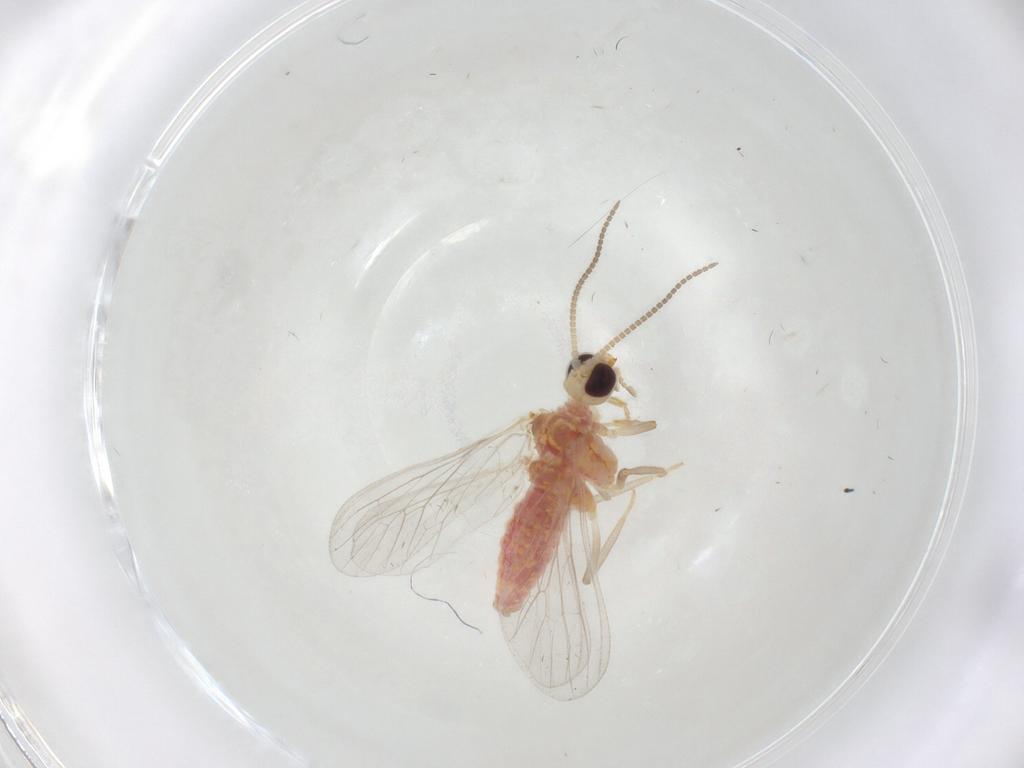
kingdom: Animalia
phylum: Arthropoda
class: Insecta
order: Neuroptera
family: Coniopterygidae
